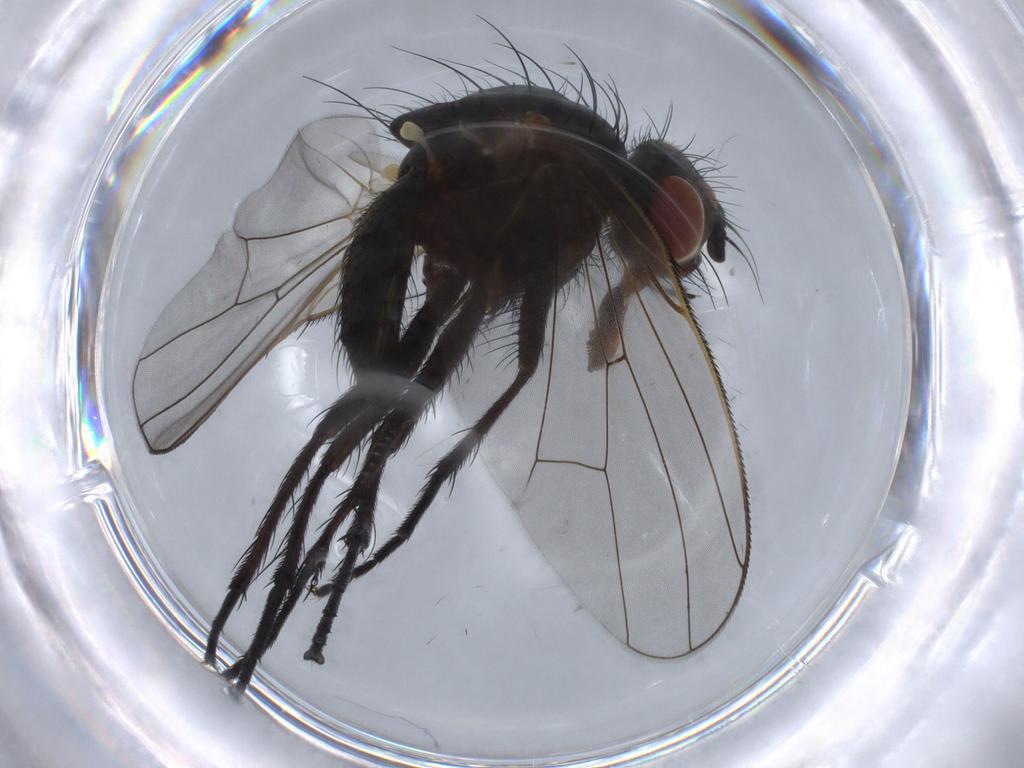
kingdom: Animalia
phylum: Arthropoda
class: Insecta
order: Diptera
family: Anthomyiidae
